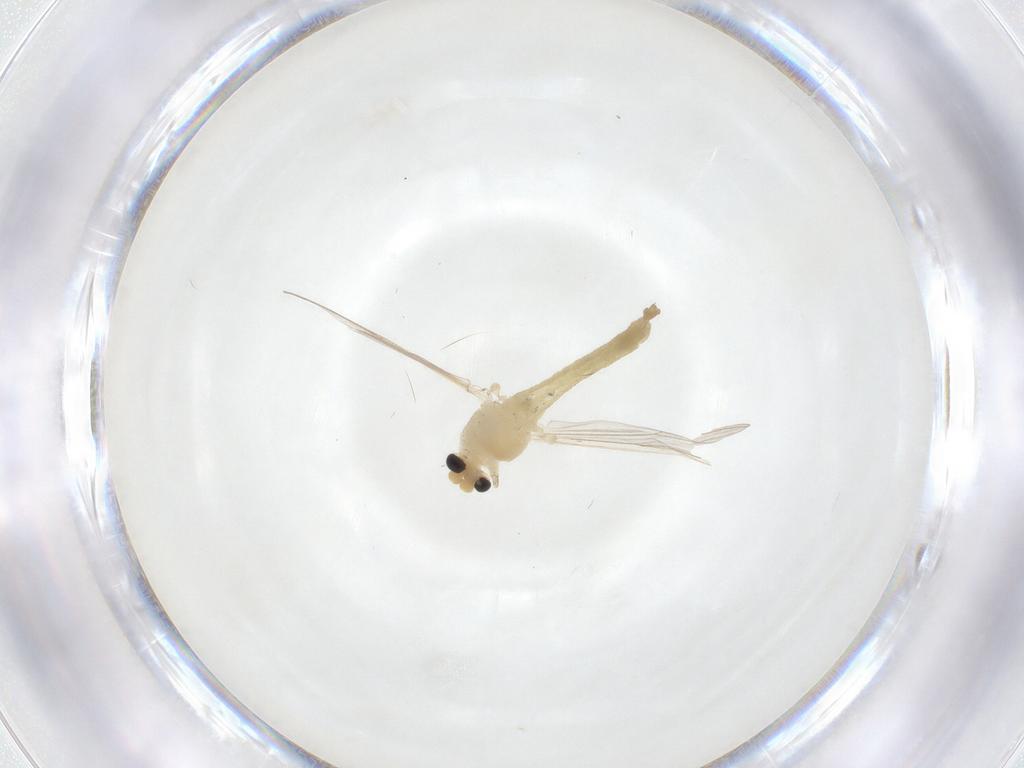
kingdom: Animalia
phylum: Arthropoda
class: Insecta
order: Diptera
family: Chironomidae
